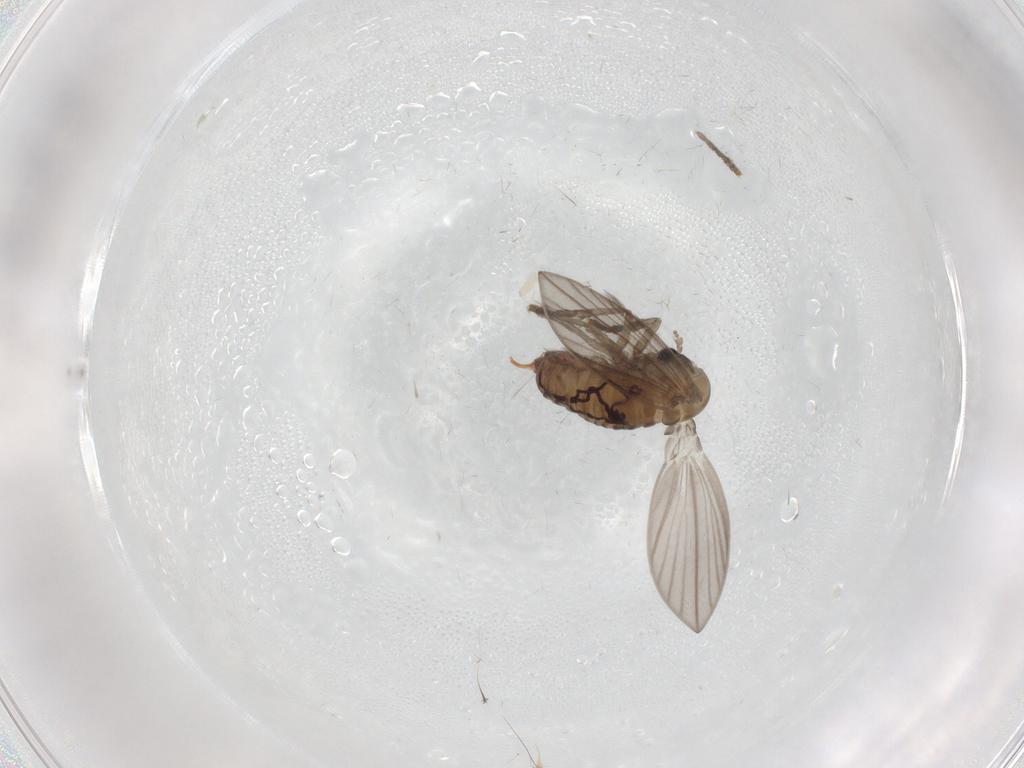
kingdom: Animalia
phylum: Arthropoda
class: Insecta
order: Diptera
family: Psychodidae
